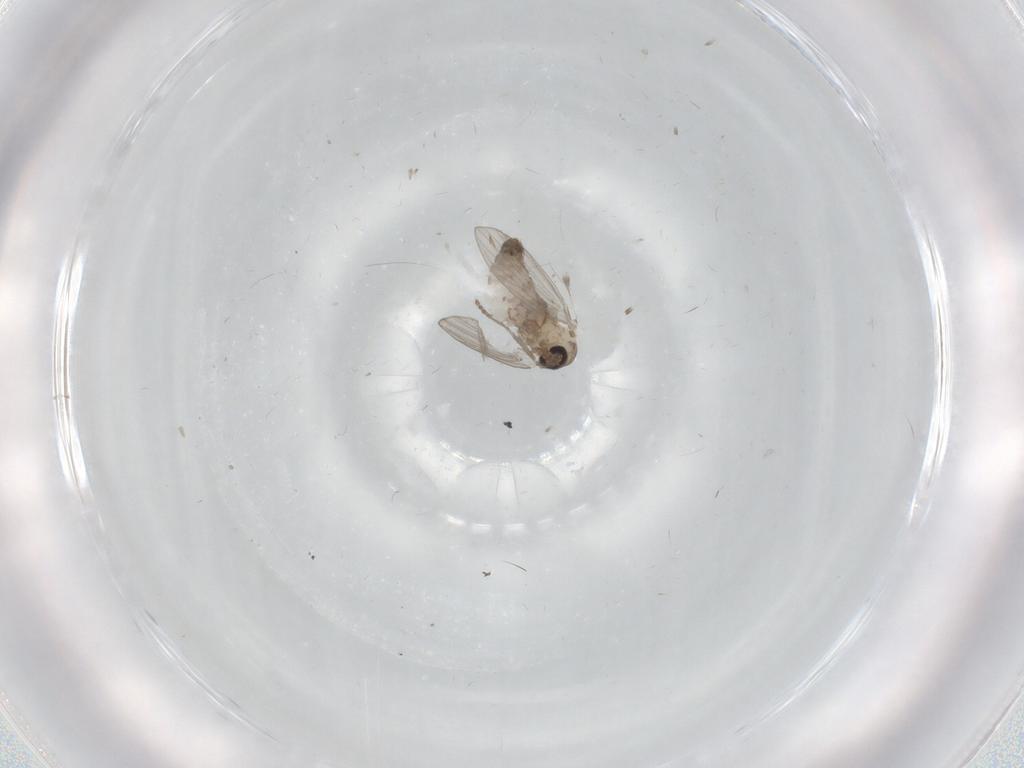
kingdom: Animalia
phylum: Arthropoda
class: Insecta
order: Diptera
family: Psychodidae
